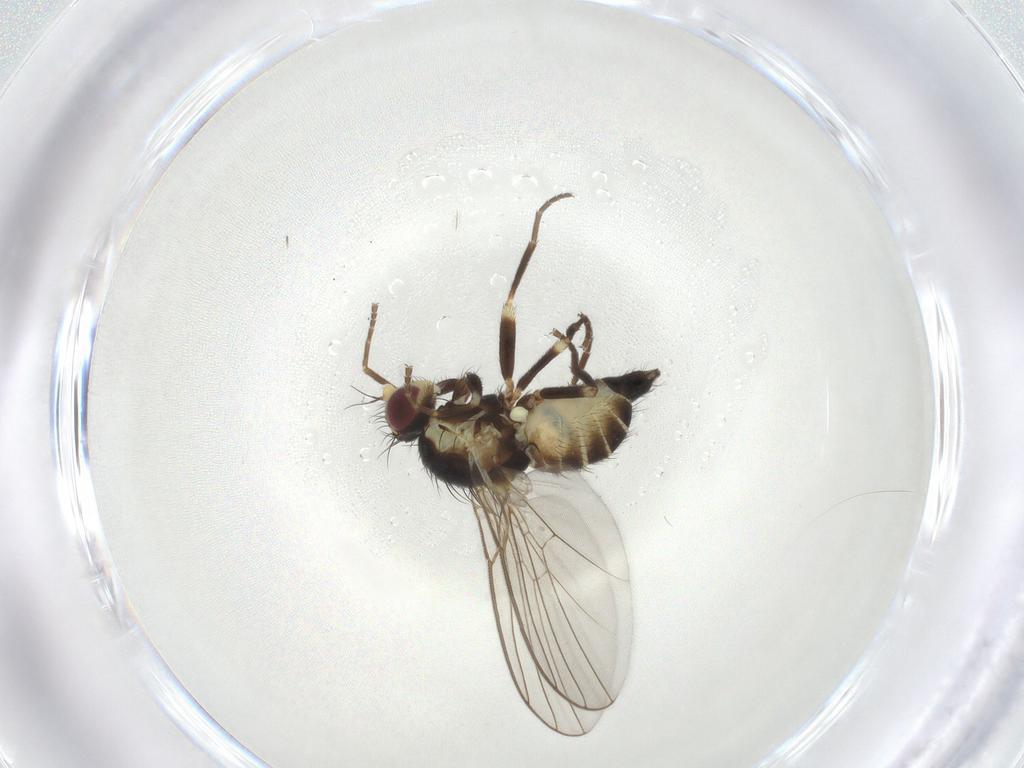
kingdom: Animalia
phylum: Arthropoda
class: Insecta
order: Diptera
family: Agromyzidae
